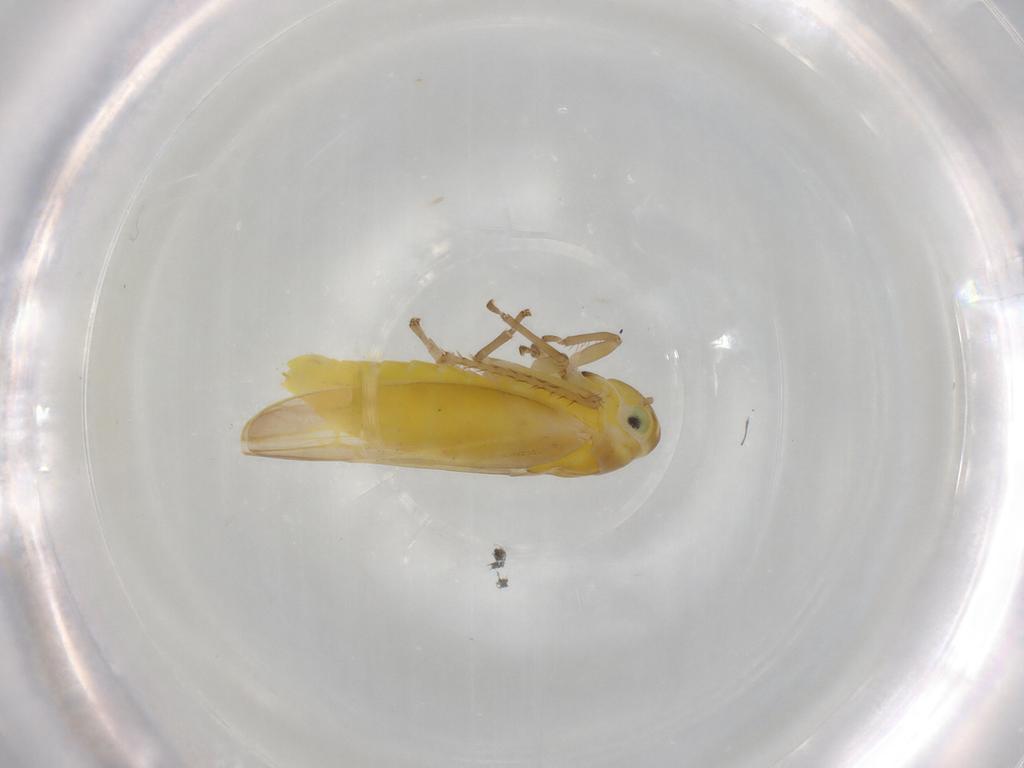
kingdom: Animalia
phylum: Arthropoda
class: Insecta
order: Hemiptera
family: Cicadellidae
